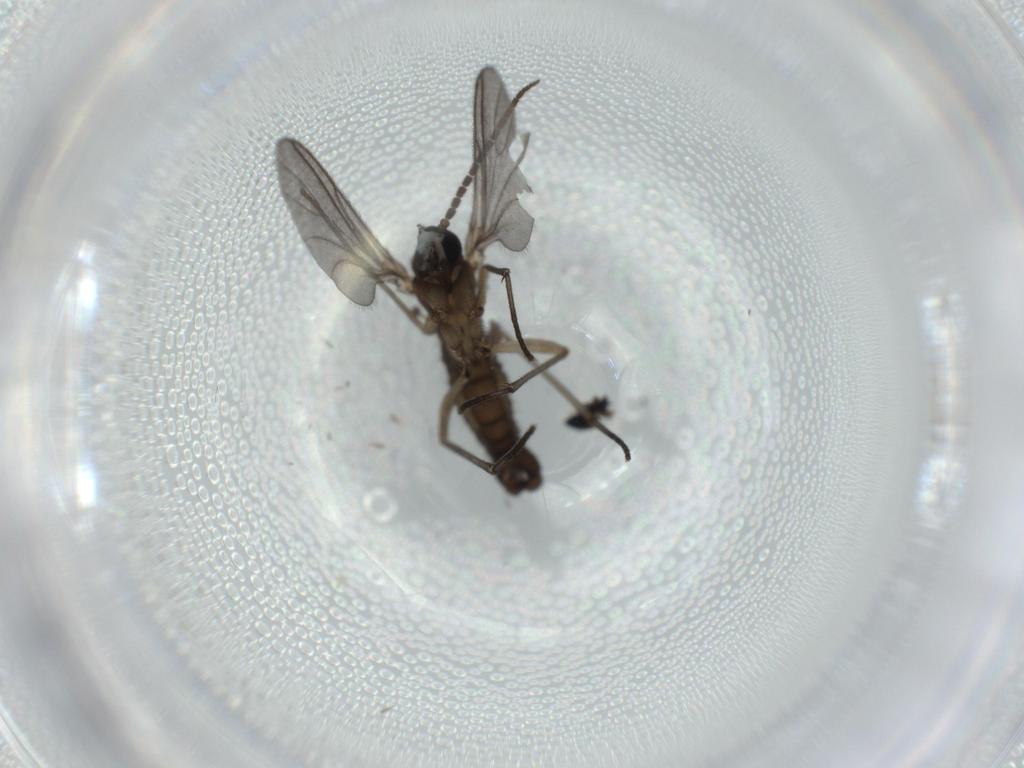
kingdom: Animalia
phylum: Arthropoda
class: Insecta
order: Diptera
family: Sciaridae
